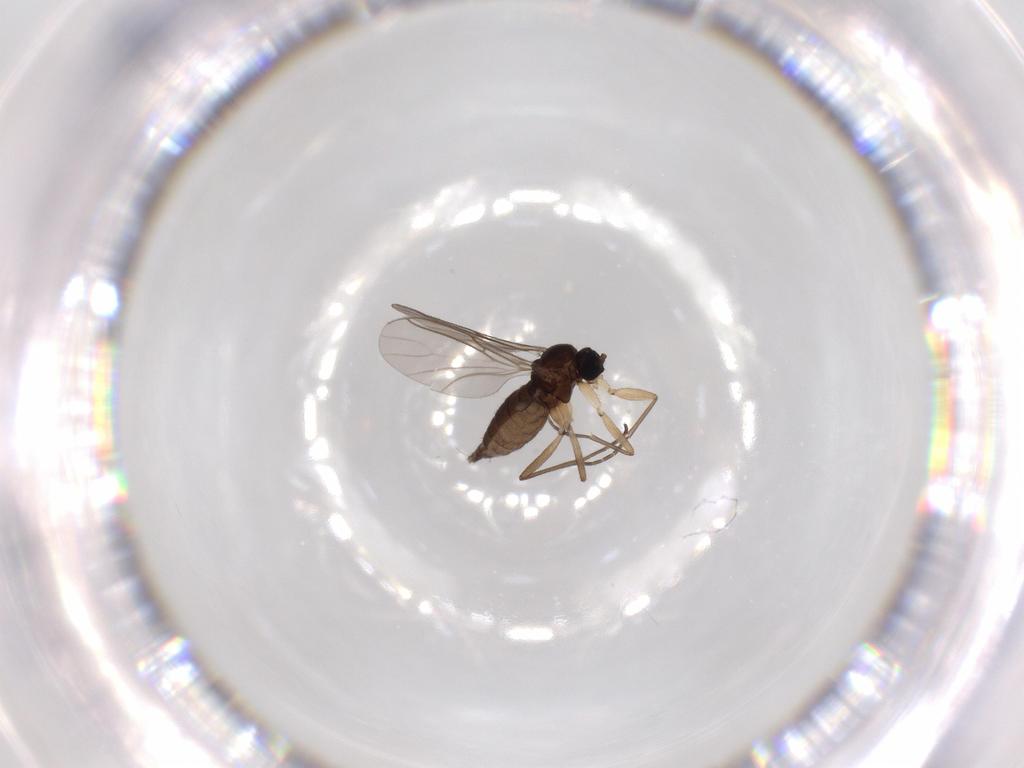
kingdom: Animalia
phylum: Arthropoda
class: Insecta
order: Diptera
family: Sciaridae
